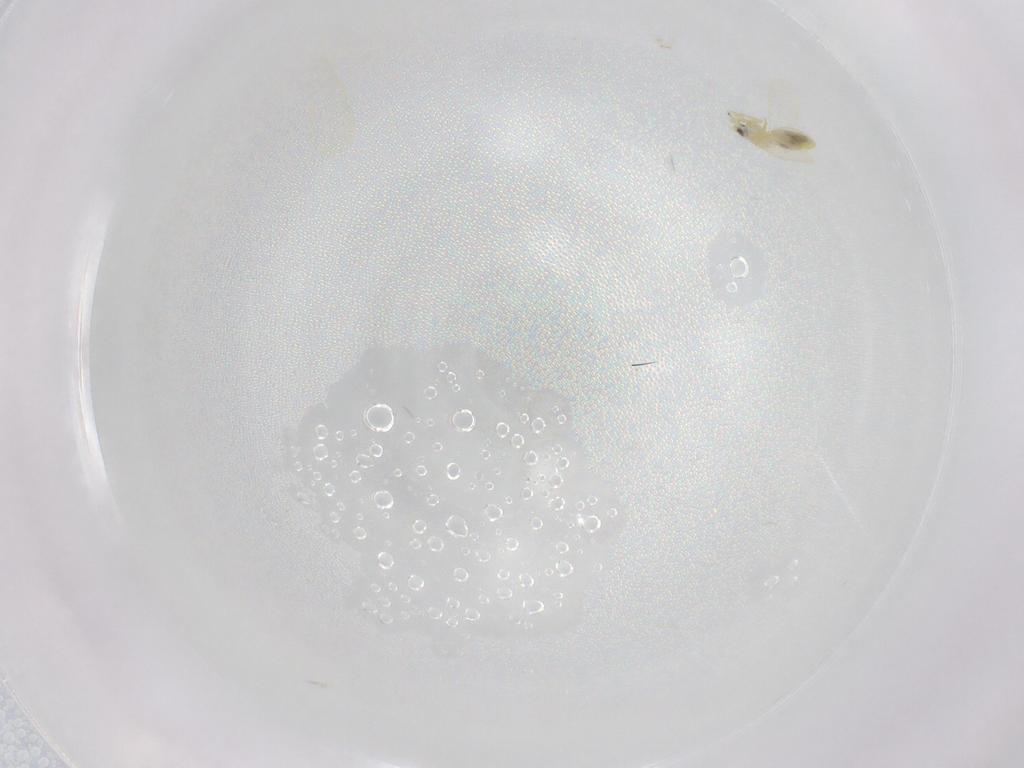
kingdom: Animalia
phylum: Arthropoda
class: Insecta
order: Hemiptera
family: Aleyrodidae
